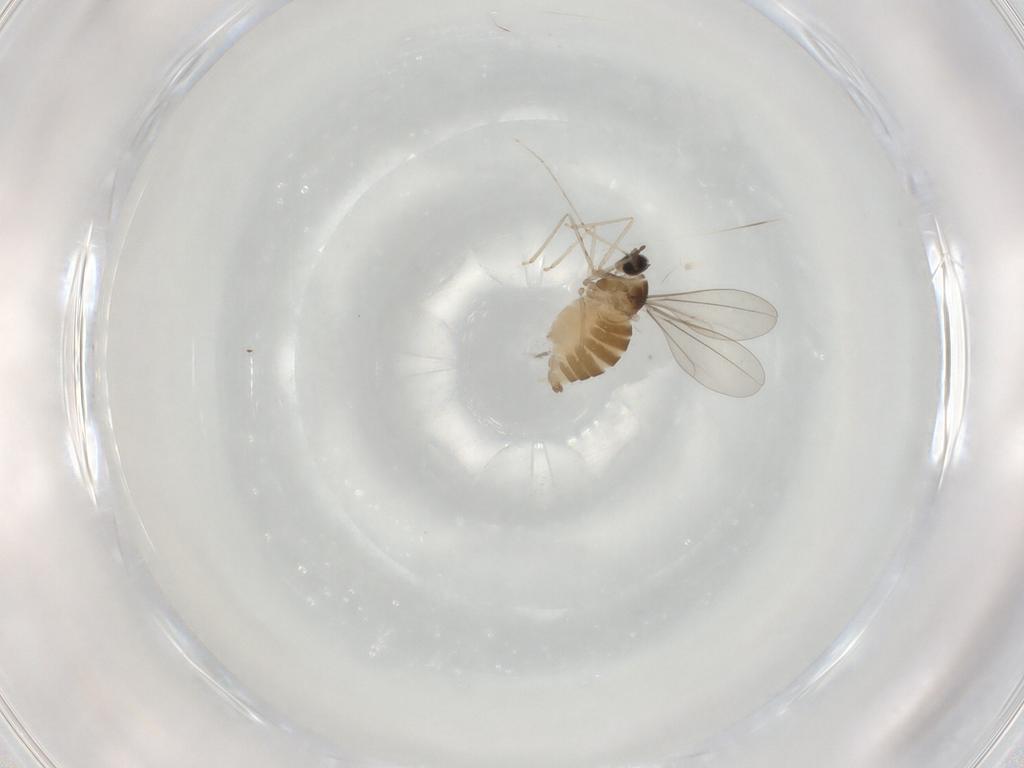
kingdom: Animalia
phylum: Arthropoda
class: Insecta
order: Diptera
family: Cecidomyiidae
